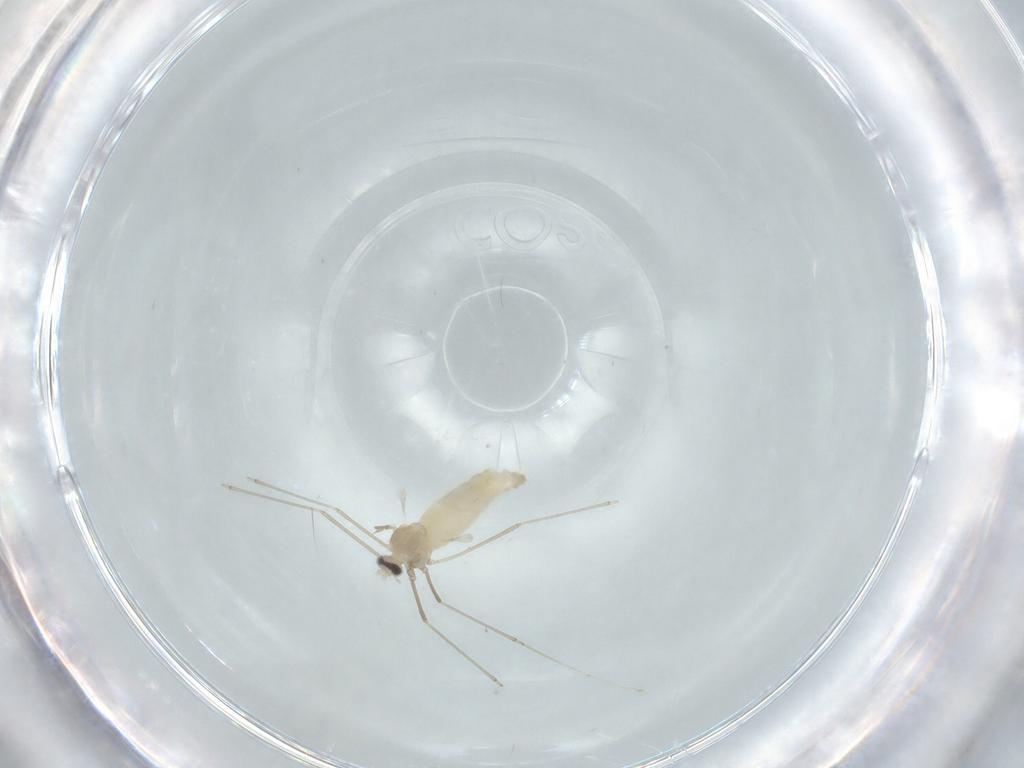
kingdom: Animalia
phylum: Arthropoda
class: Insecta
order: Diptera
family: Cecidomyiidae
